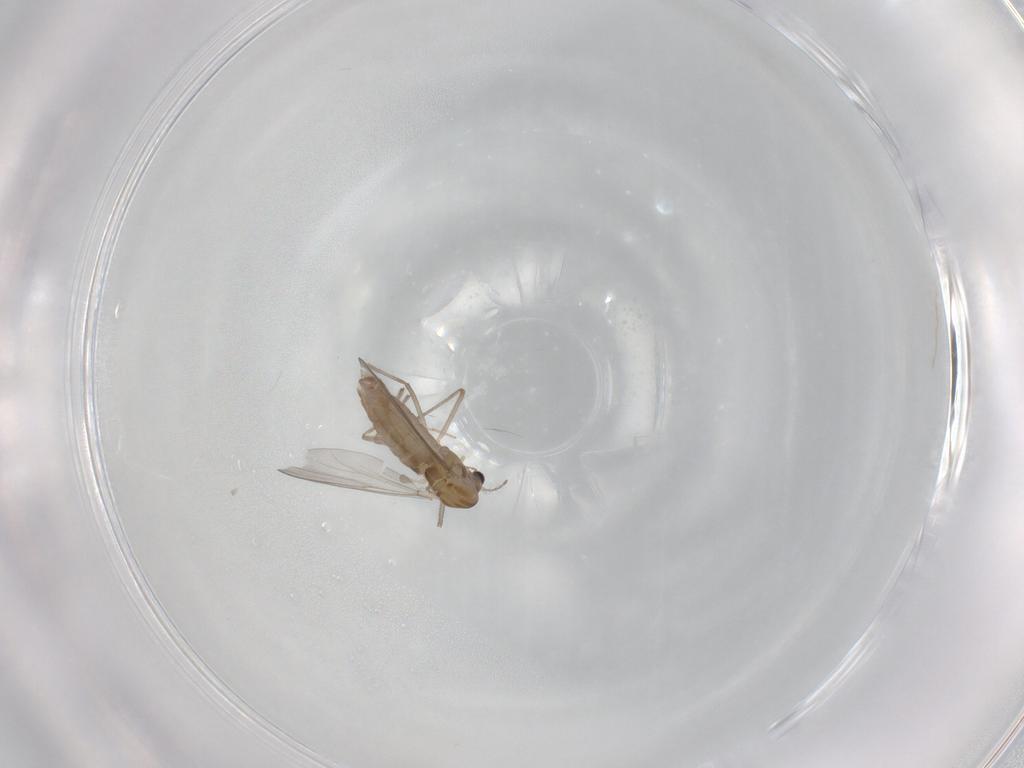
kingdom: Animalia
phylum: Arthropoda
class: Insecta
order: Diptera
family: Chironomidae
